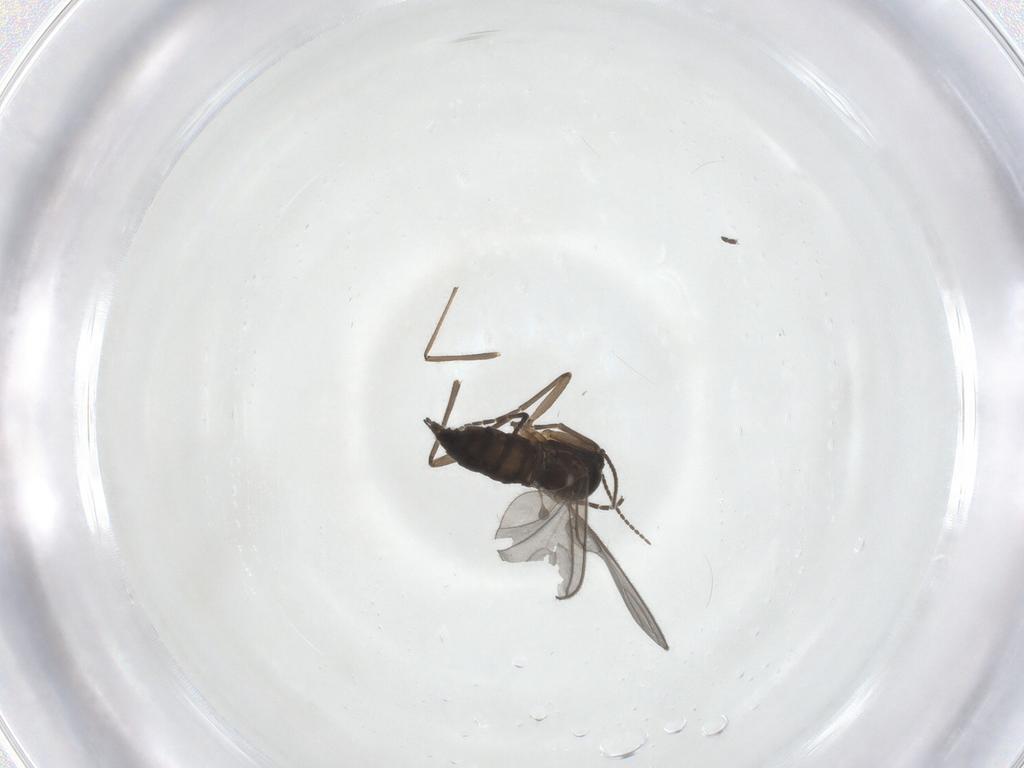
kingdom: Animalia
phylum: Arthropoda
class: Insecta
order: Diptera
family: Sciaridae
